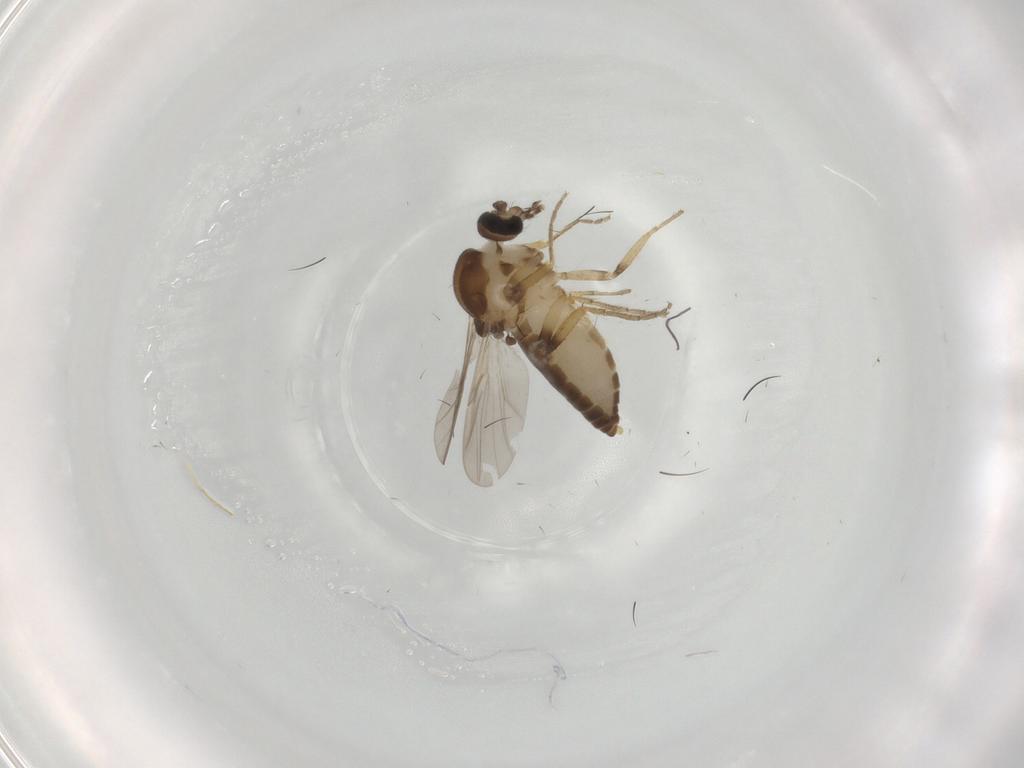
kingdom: Animalia
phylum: Arthropoda
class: Insecta
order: Diptera
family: Ceratopogonidae
